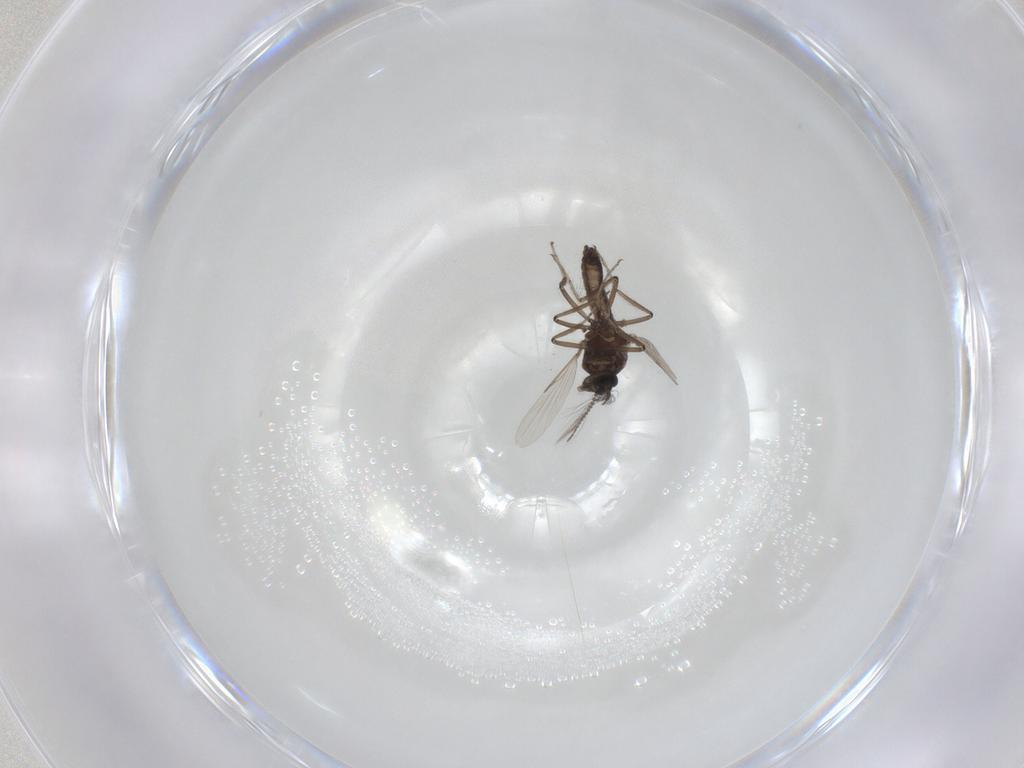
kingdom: Animalia
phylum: Arthropoda
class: Insecta
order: Diptera
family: Ceratopogonidae
